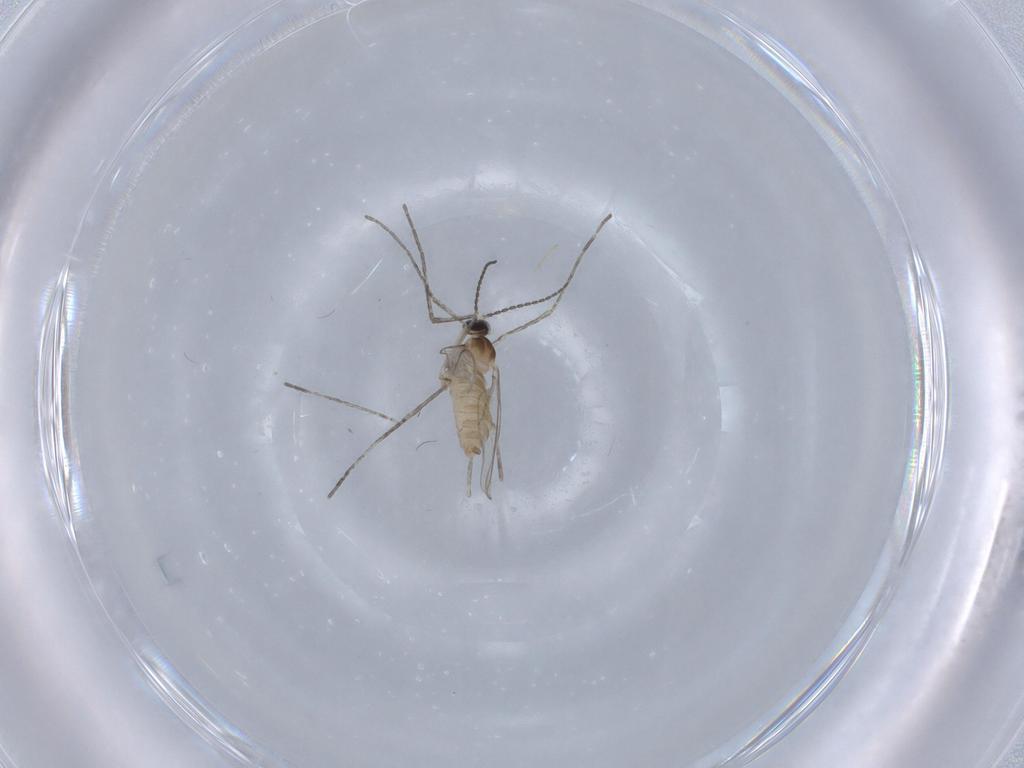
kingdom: Animalia
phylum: Arthropoda
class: Insecta
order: Diptera
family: Cecidomyiidae
